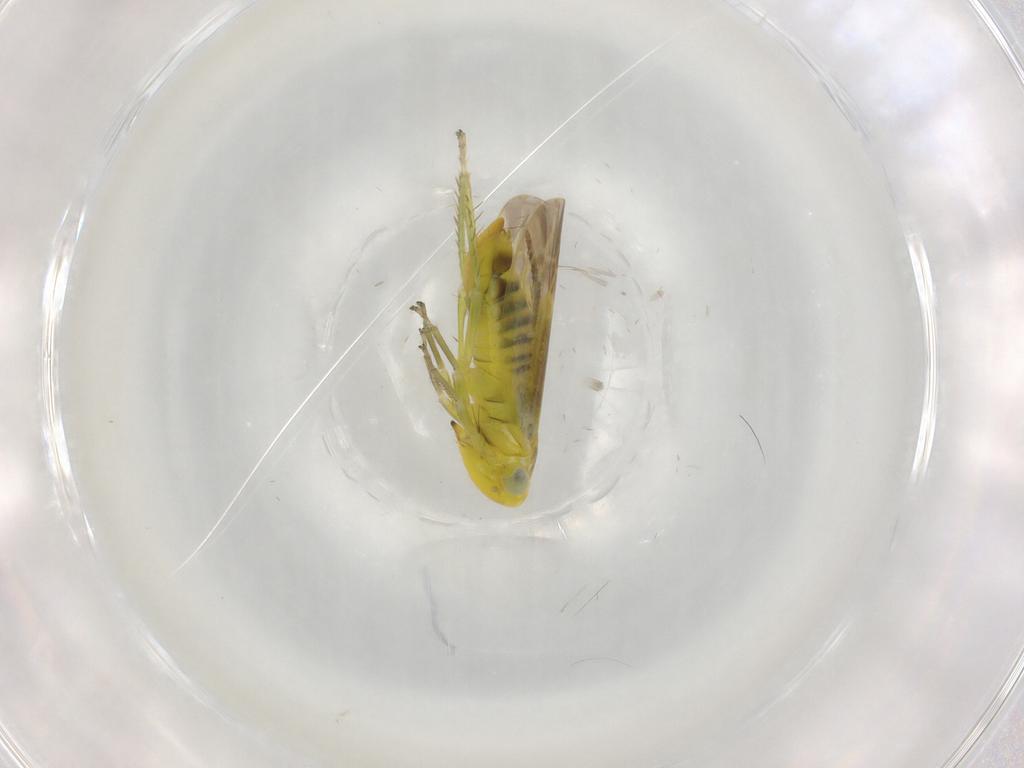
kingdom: Animalia
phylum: Arthropoda
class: Insecta
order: Hemiptera
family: Cicadellidae
